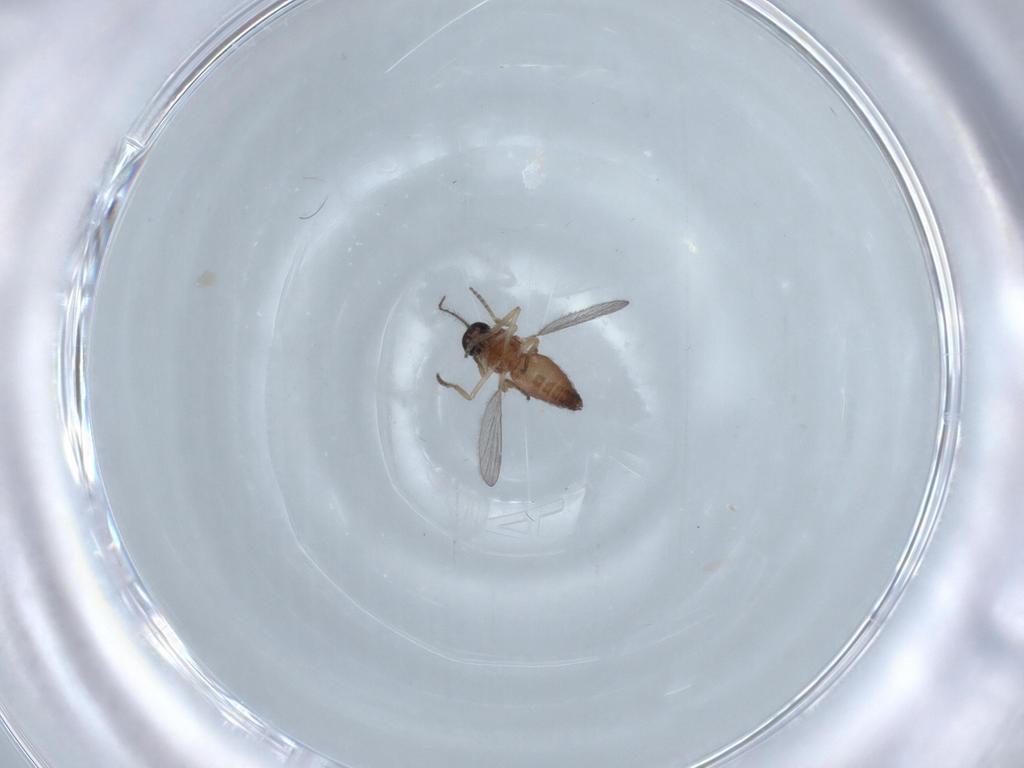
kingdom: Animalia
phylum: Arthropoda
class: Insecta
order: Diptera
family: Ceratopogonidae
